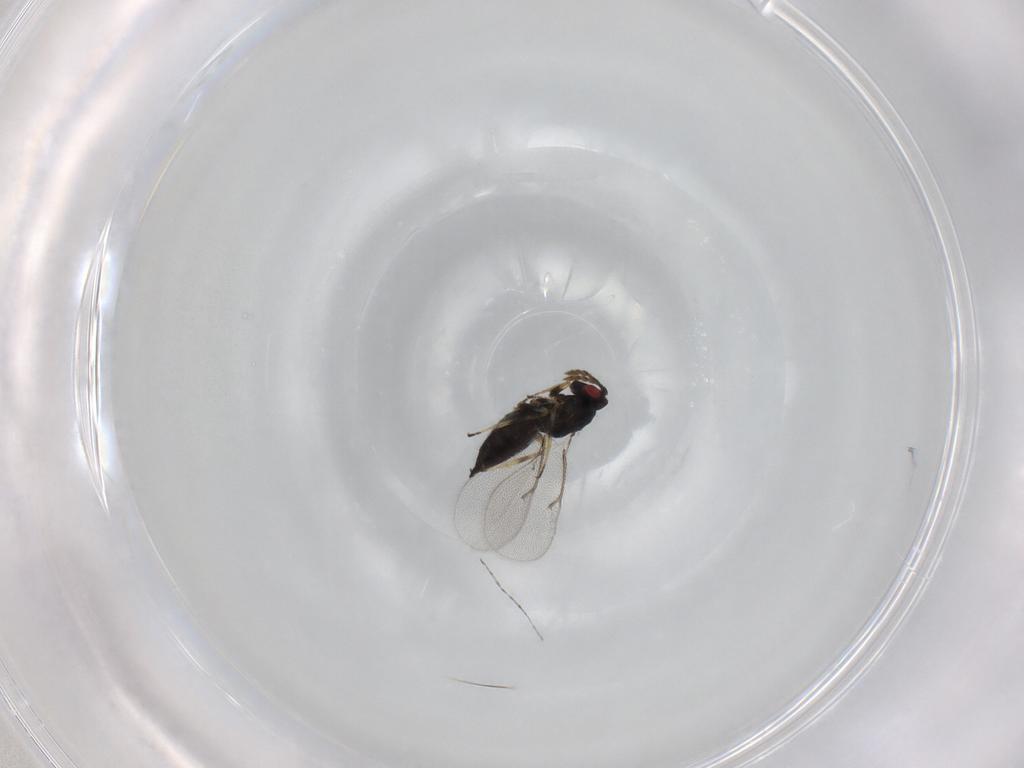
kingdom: Animalia
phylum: Arthropoda
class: Insecta
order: Hymenoptera
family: Eulophidae
